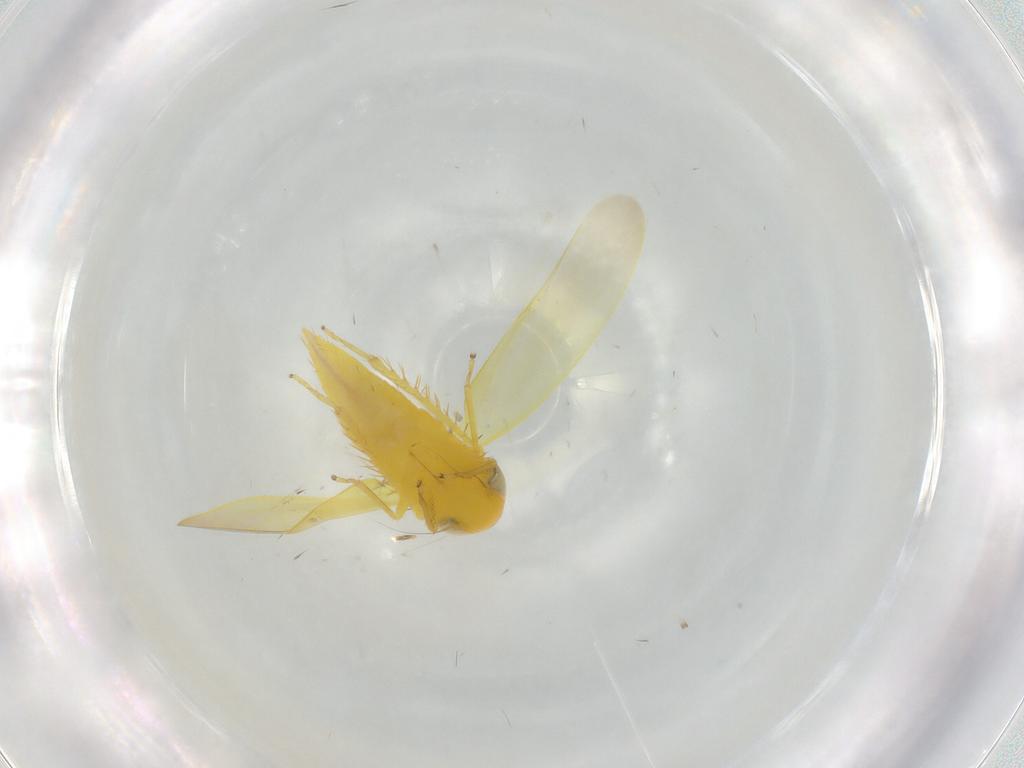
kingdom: Animalia
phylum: Arthropoda
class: Insecta
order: Hemiptera
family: Cicadellidae
